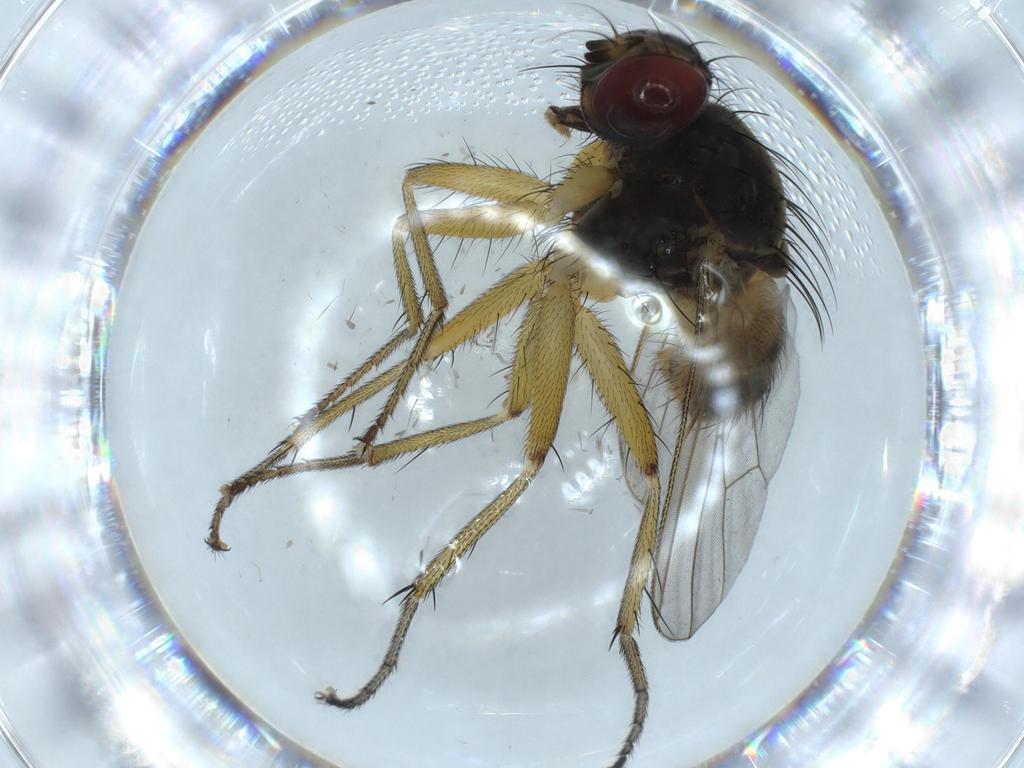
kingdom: Animalia
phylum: Arthropoda
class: Insecta
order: Diptera
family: Muscidae
